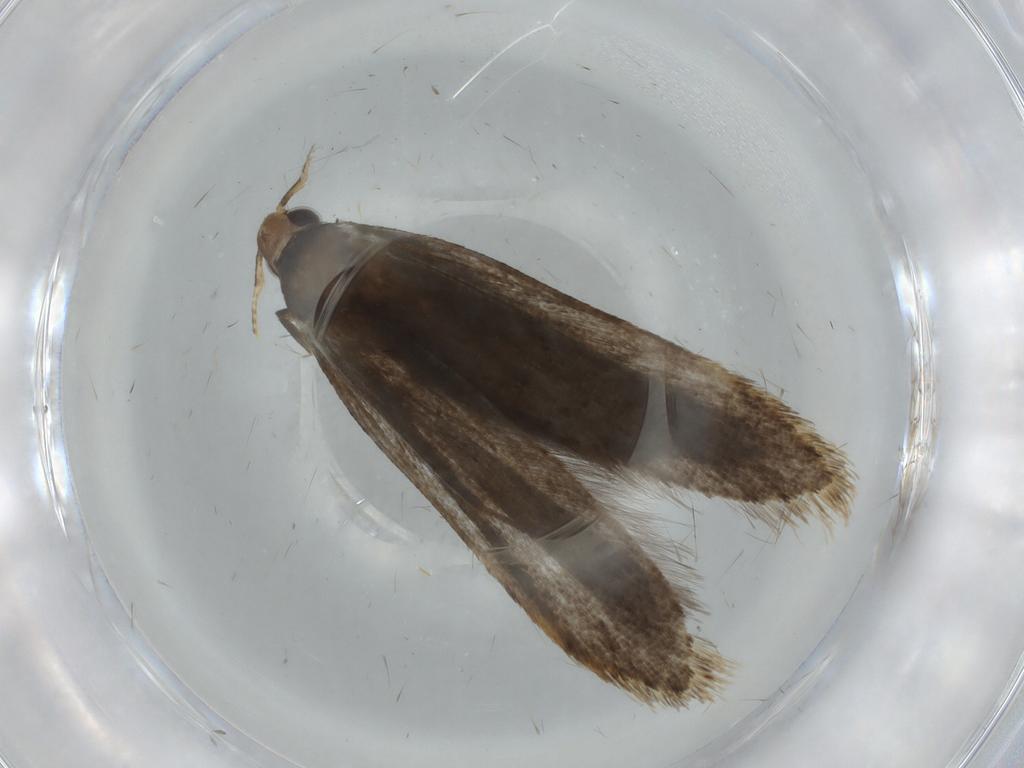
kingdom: Animalia
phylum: Arthropoda
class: Insecta
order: Lepidoptera
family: Gelechiidae
